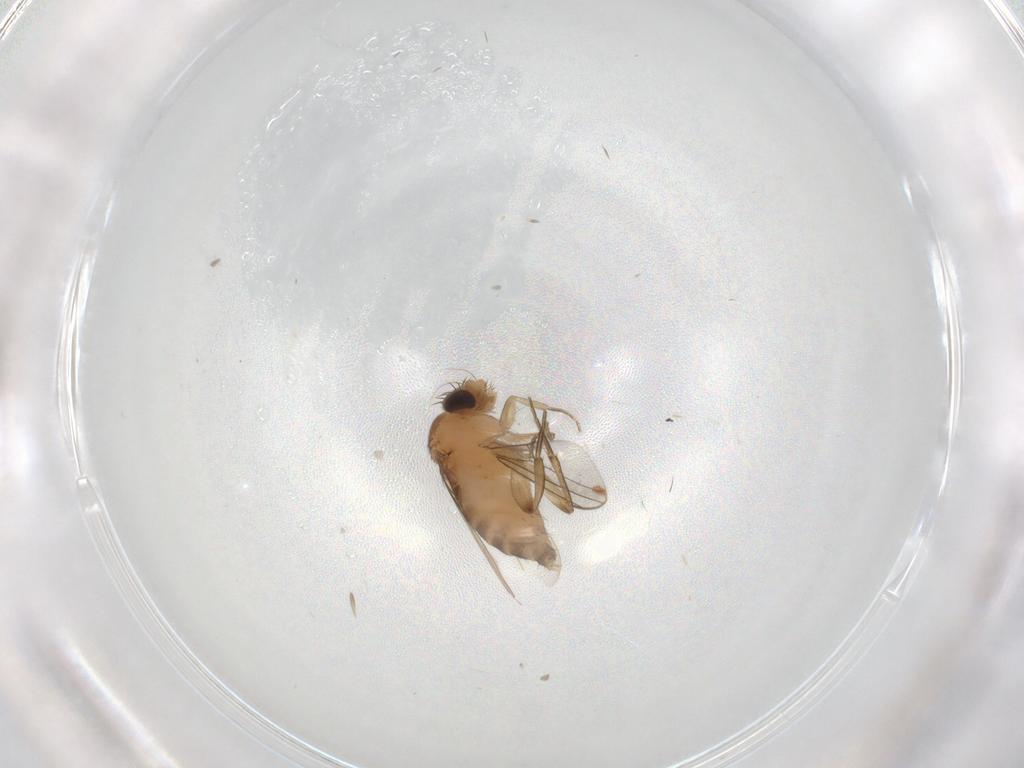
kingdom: Animalia
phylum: Arthropoda
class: Insecta
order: Diptera
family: Phoridae
